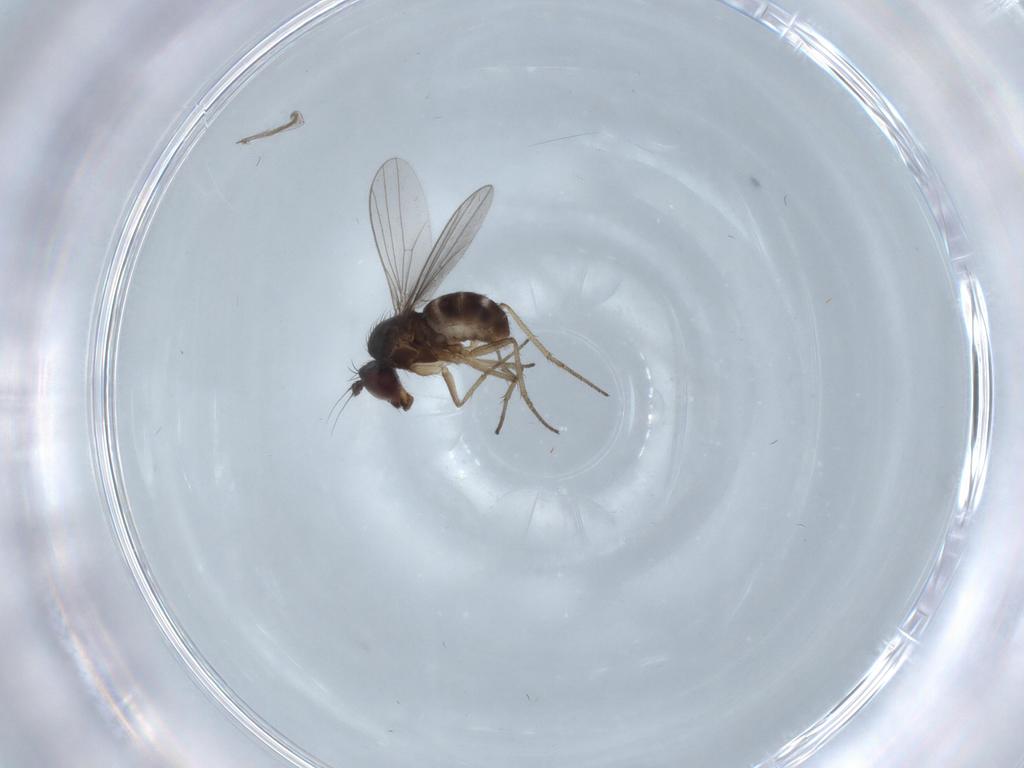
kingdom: Animalia
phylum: Arthropoda
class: Insecta
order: Diptera
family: Dolichopodidae
